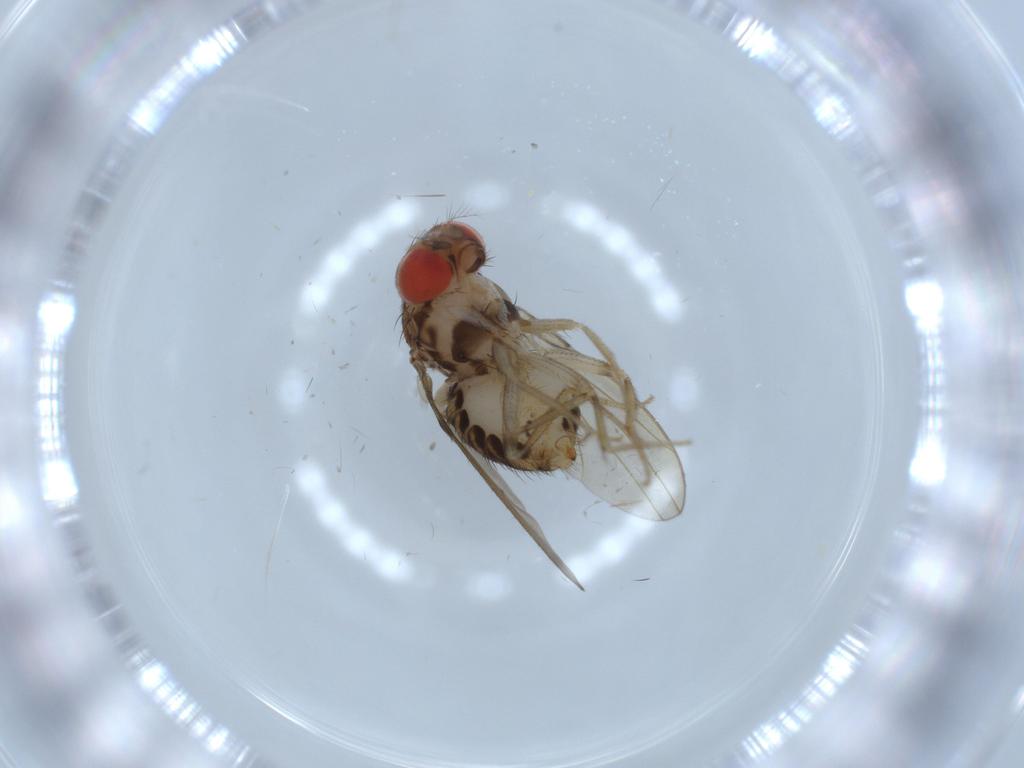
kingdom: Animalia
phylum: Arthropoda
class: Insecta
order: Diptera
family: Drosophilidae
